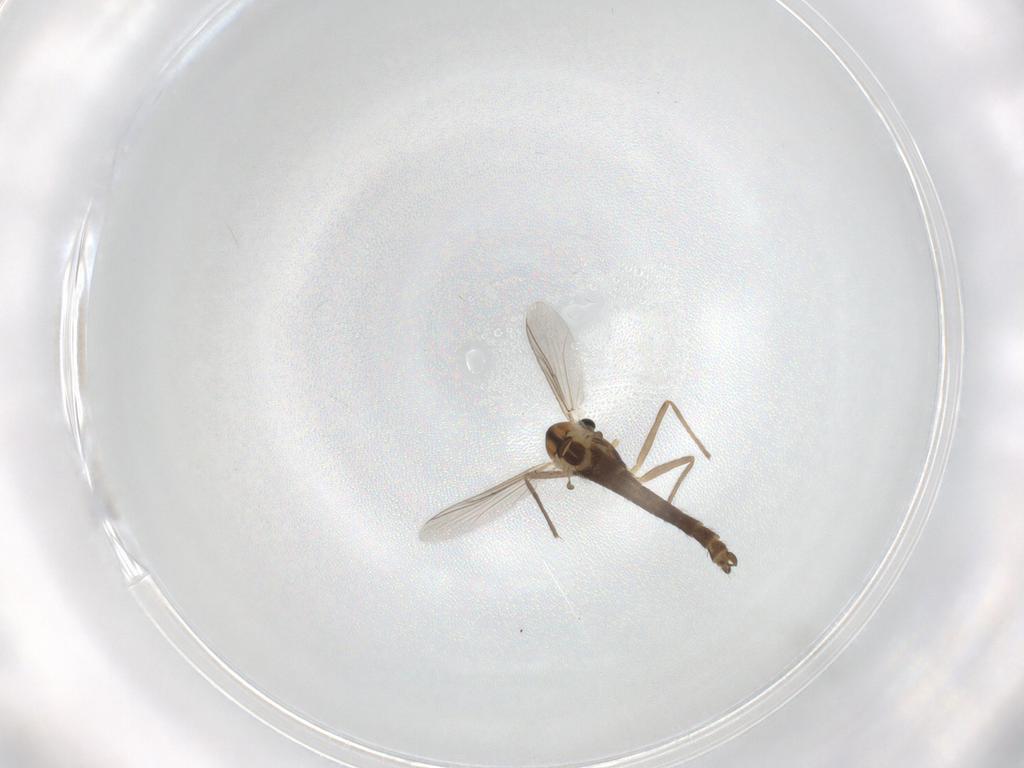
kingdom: Animalia
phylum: Arthropoda
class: Insecta
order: Diptera
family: Chironomidae
